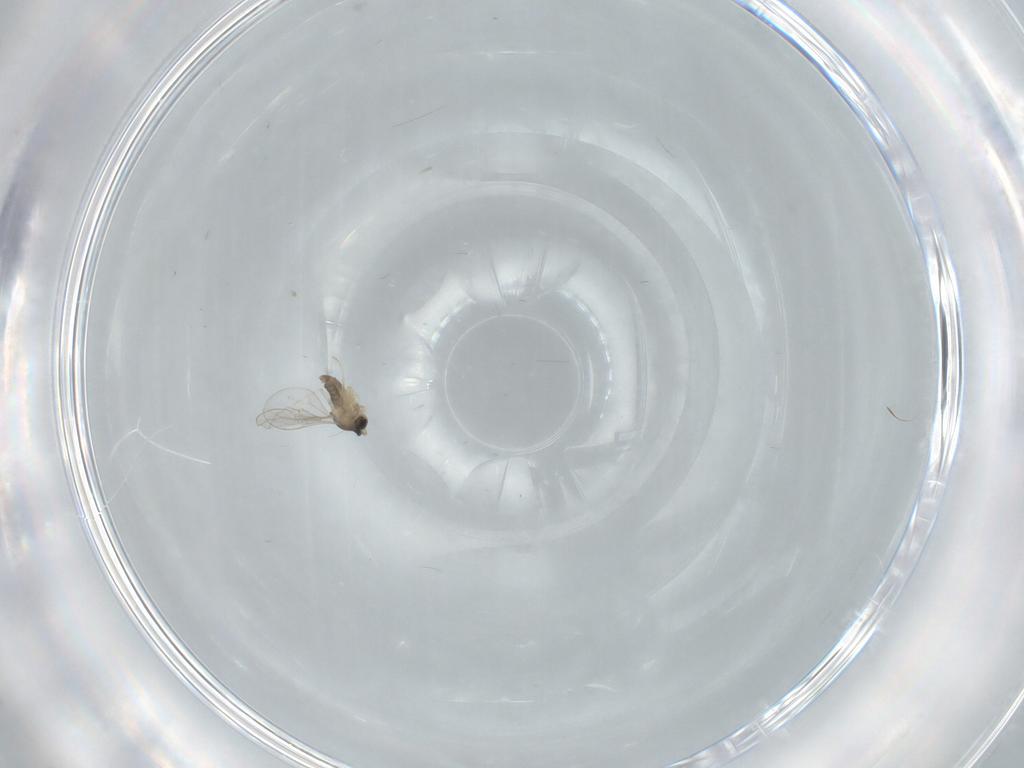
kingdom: Animalia
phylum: Arthropoda
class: Insecta
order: Diptera
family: Cecidomyiidae
